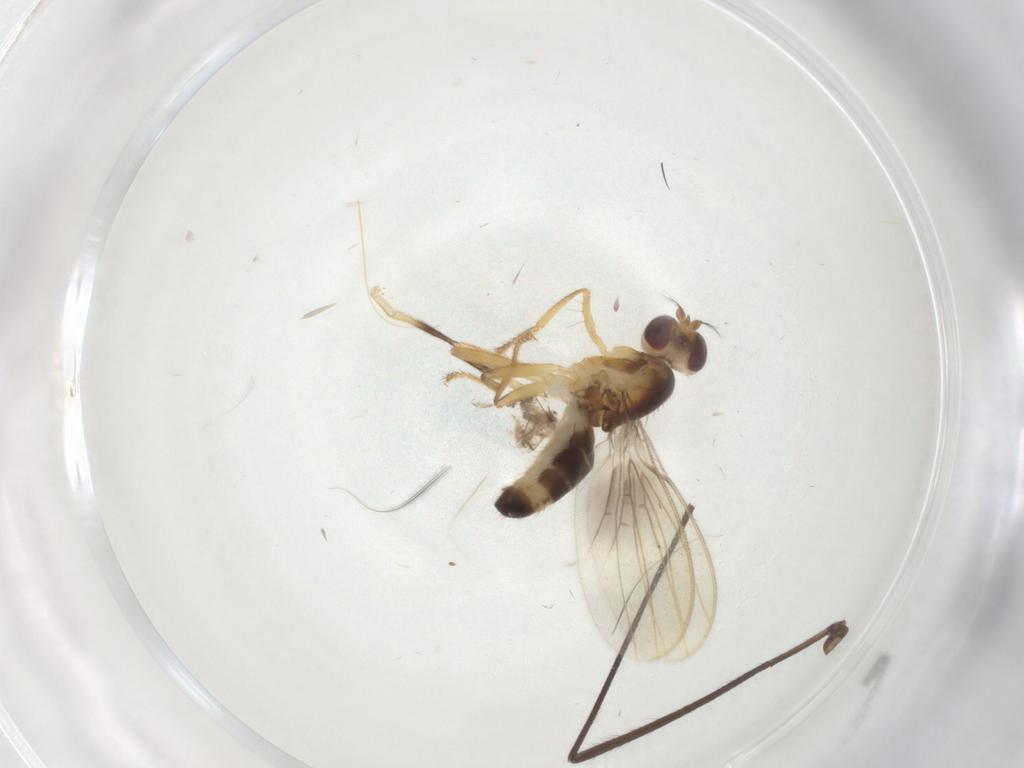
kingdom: Animalia
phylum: Arthropoda
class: Insecta
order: Diptera
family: Periscelididae
